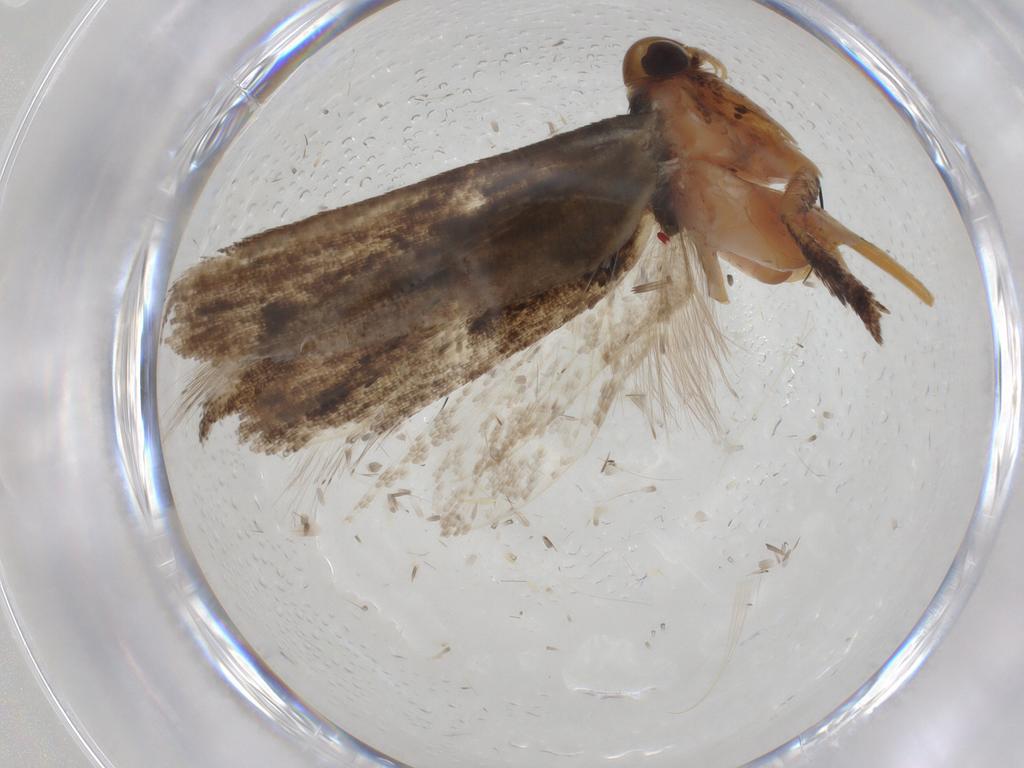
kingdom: Animalia
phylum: Arthropoda
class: Insecta
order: Lepidoptera
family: Gelechiidae
